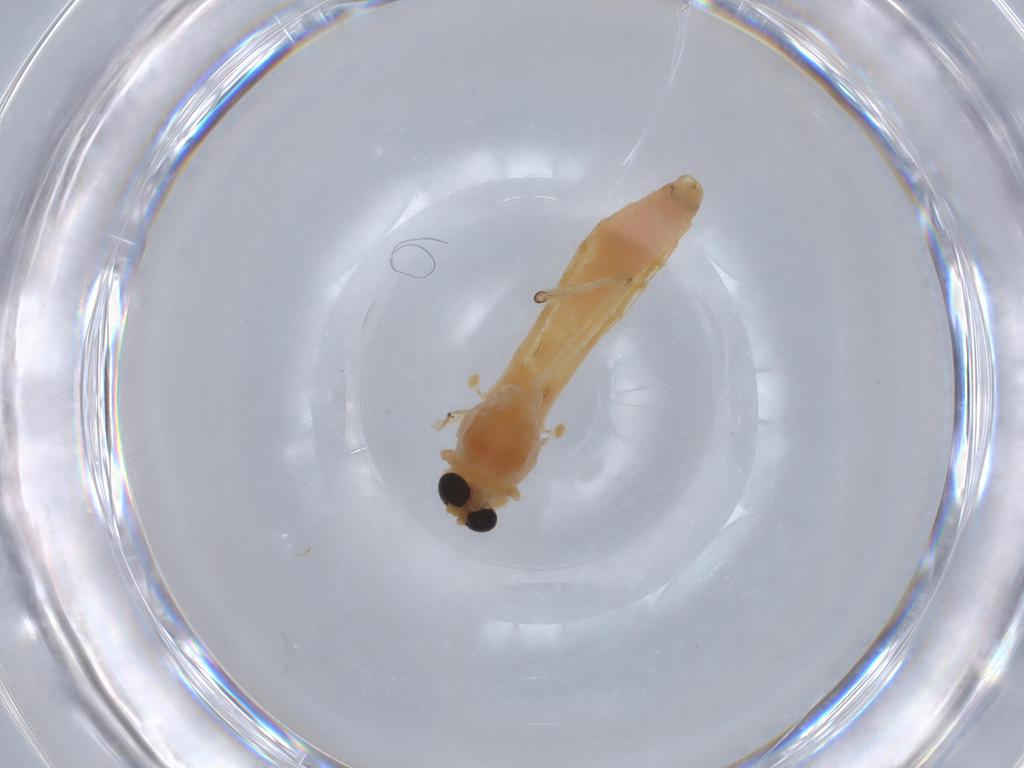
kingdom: Animalia
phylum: Arthropoda
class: Insecta
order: Diptera
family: Chironomidae
